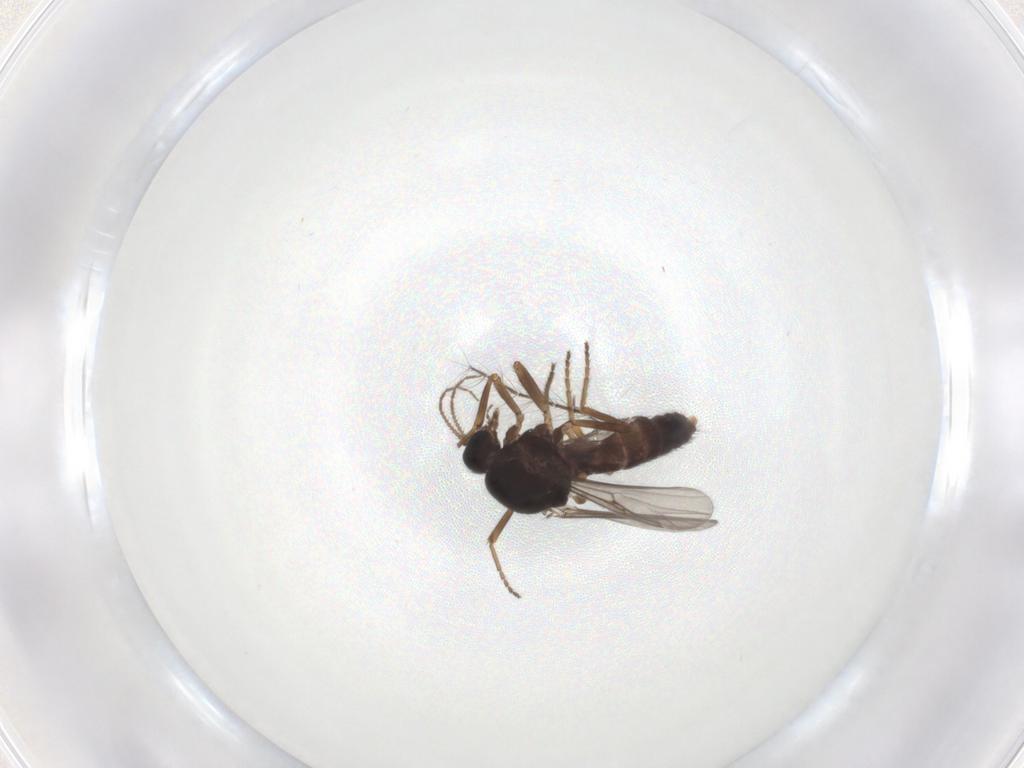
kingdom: Animalia
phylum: Arthropoda
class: Insecta
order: Diptera
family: Ceratopogonidae
